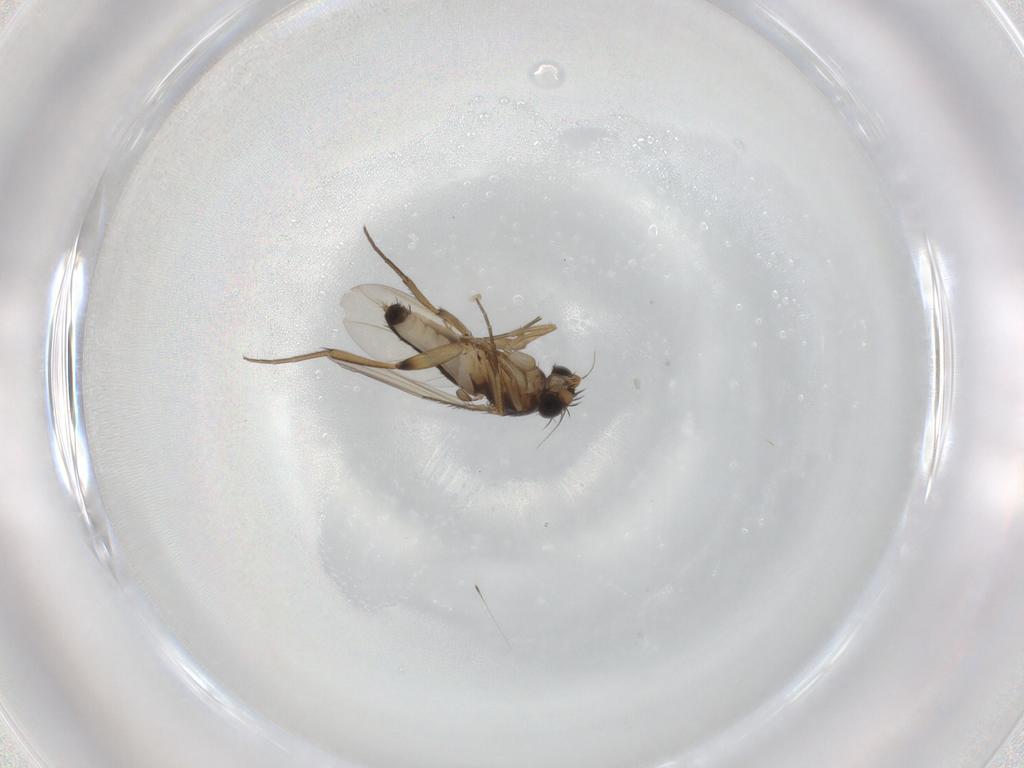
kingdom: Animalia
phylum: Arthropoda
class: Insecta
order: Diptera
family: Phoridae
